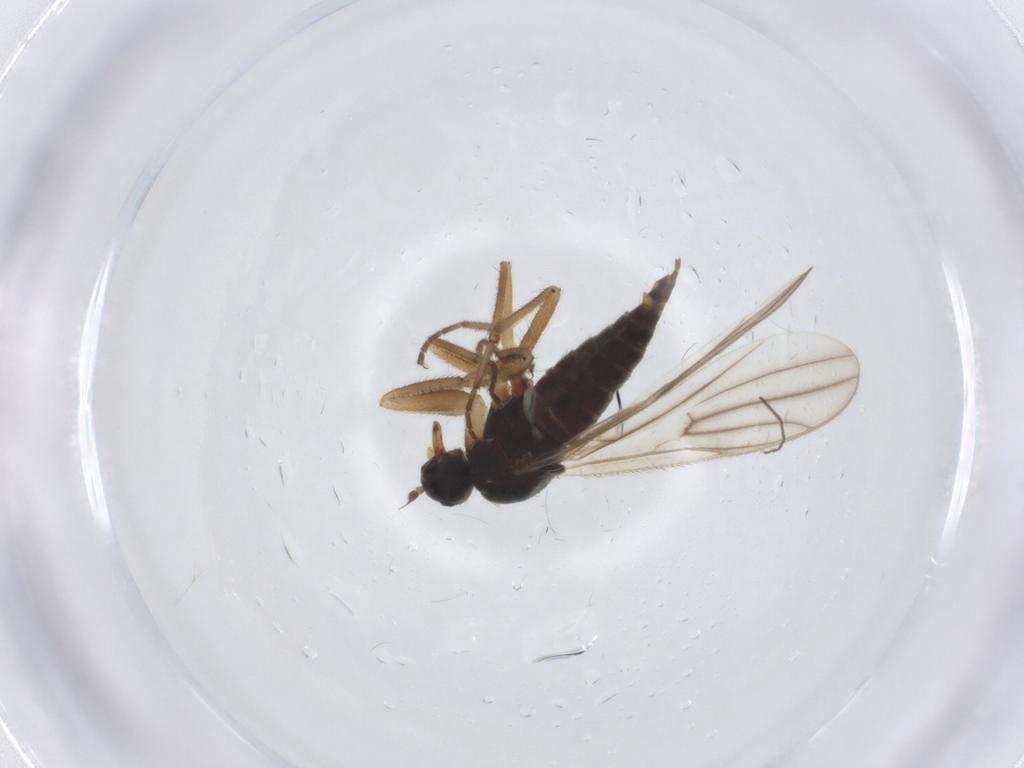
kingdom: Animalia
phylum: Arthropoda
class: Insecta
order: Diptera
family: Hybotidae
